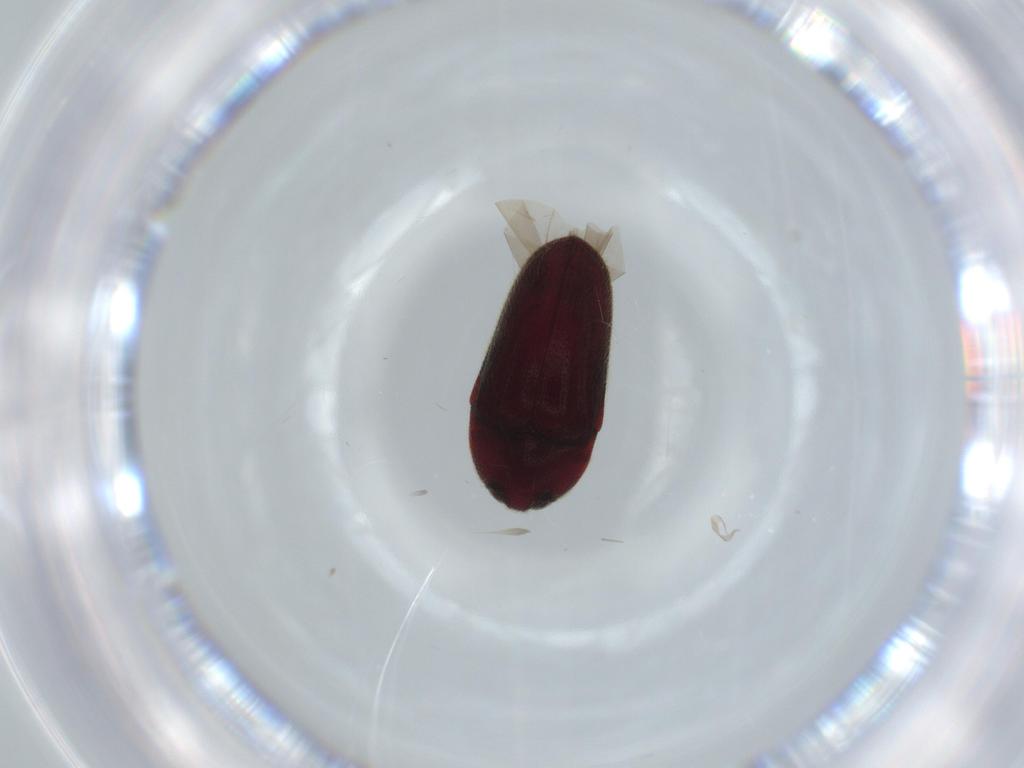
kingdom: Animalia
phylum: Arthropoda
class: Insecta
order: Coleoptera
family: Throscidae
